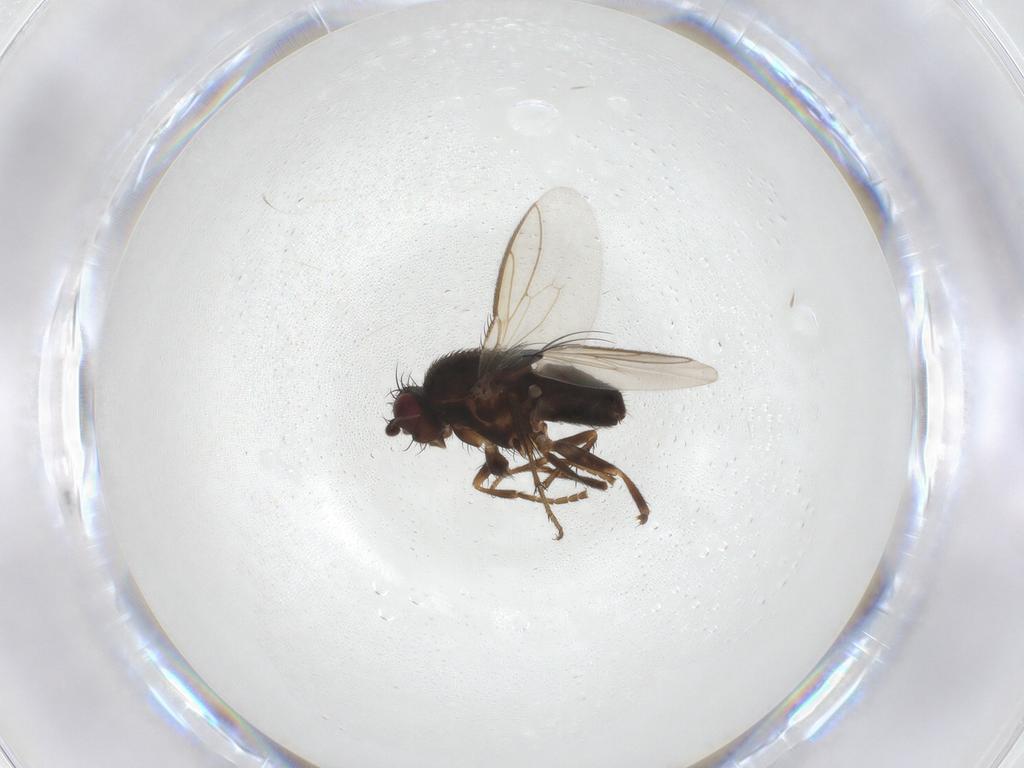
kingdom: Animalia
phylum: Arthropoda
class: Insecta
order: Diptera
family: Sphaeroceridae
